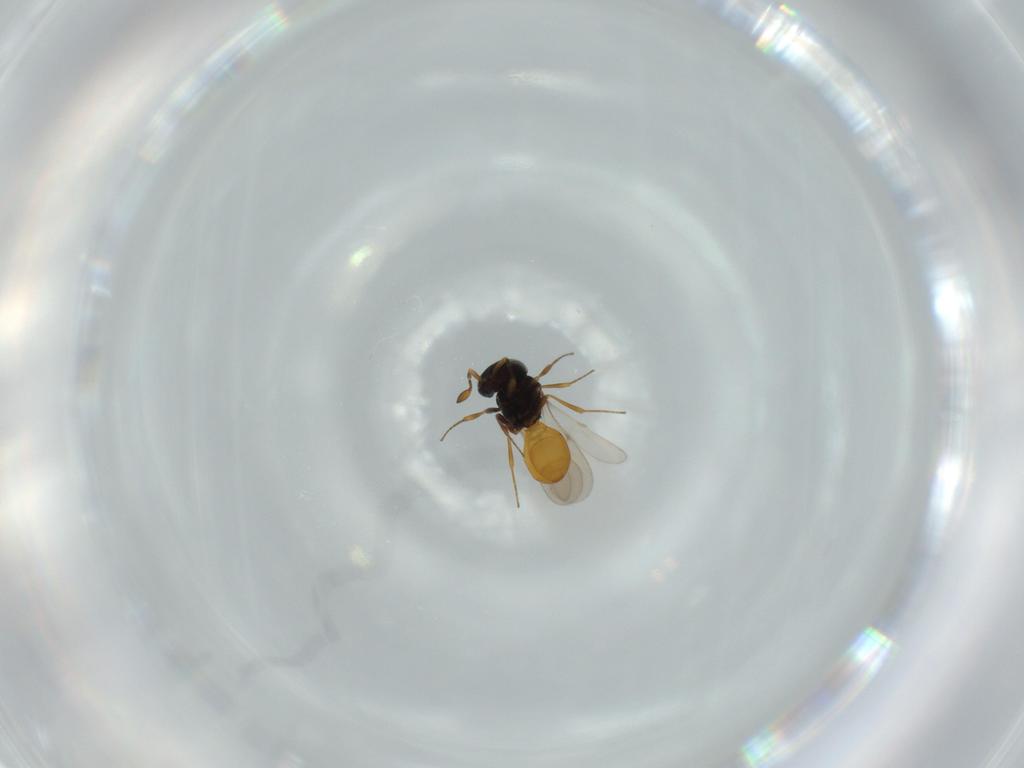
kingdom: Animalia
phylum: Arthropoda
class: Insecta
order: Hymenoptera
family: Scelionidae
